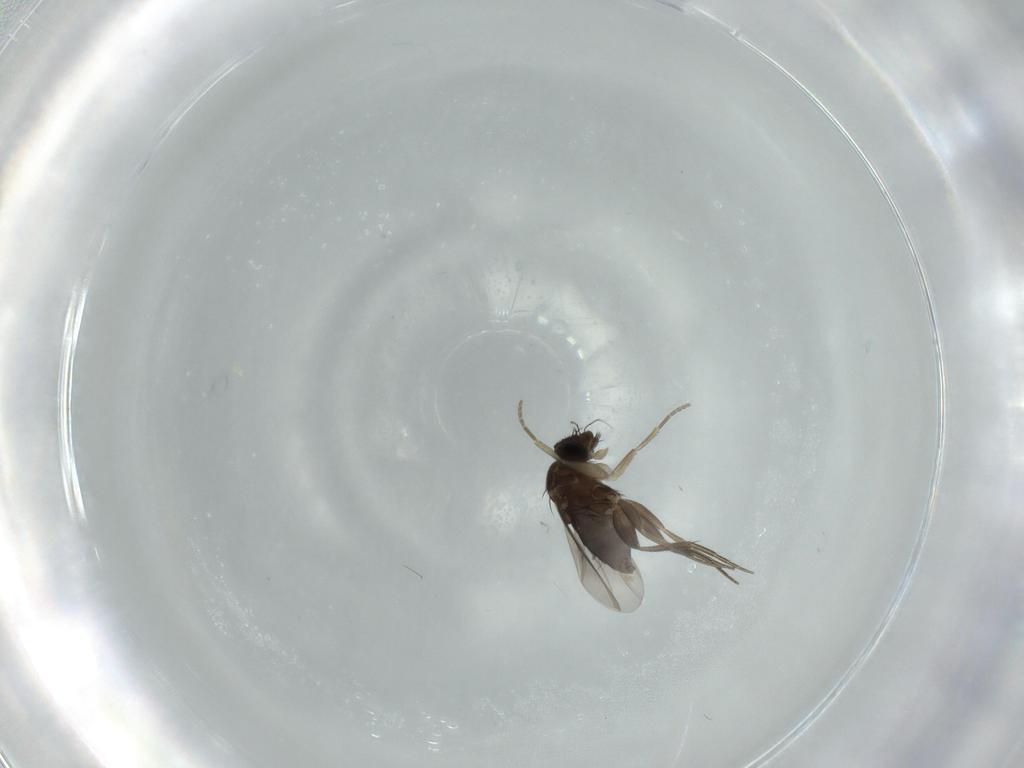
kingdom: Animalia
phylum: Arthropoda
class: Insecta
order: Diptera
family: Phoridae
